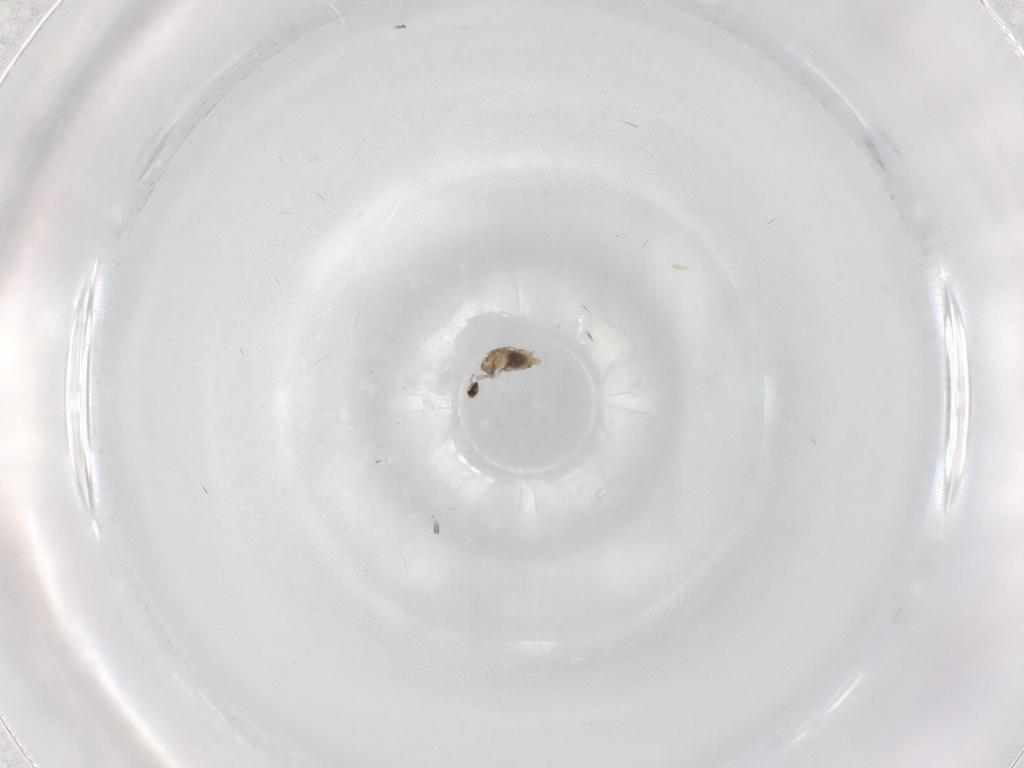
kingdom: Animalia
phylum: Arthropoda
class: Insecta
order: Diptera
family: Cecidomyiidae
